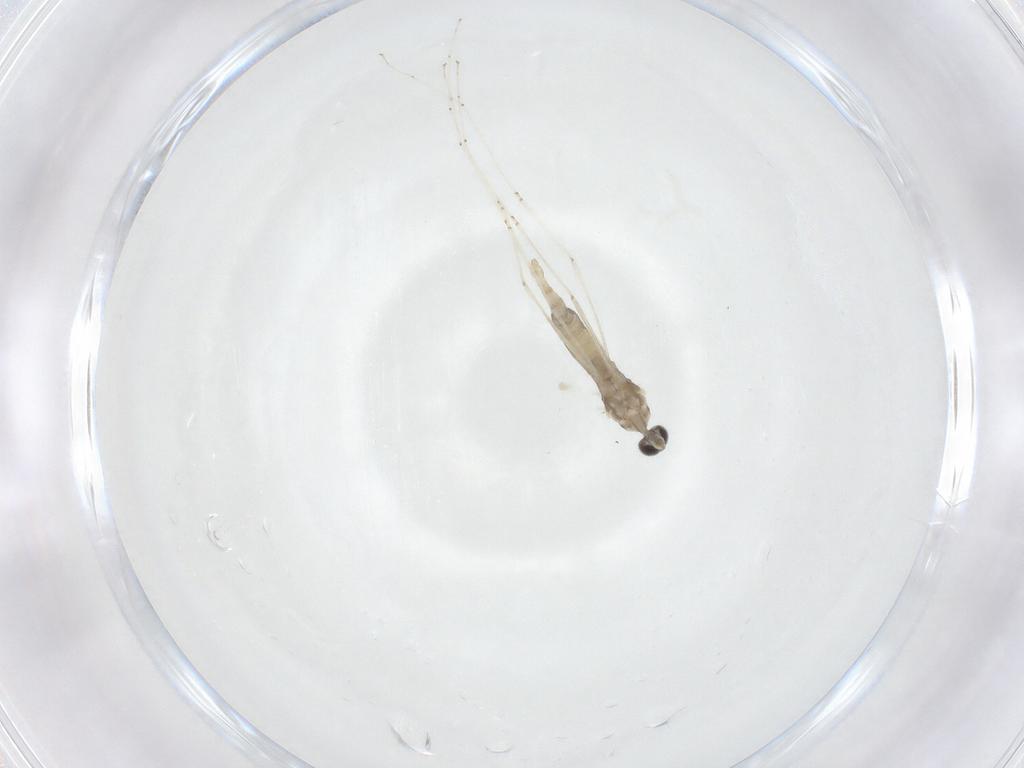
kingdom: Animalia
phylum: Arthropoda
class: Insecta
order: Diptera
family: Cecidomyiidae
